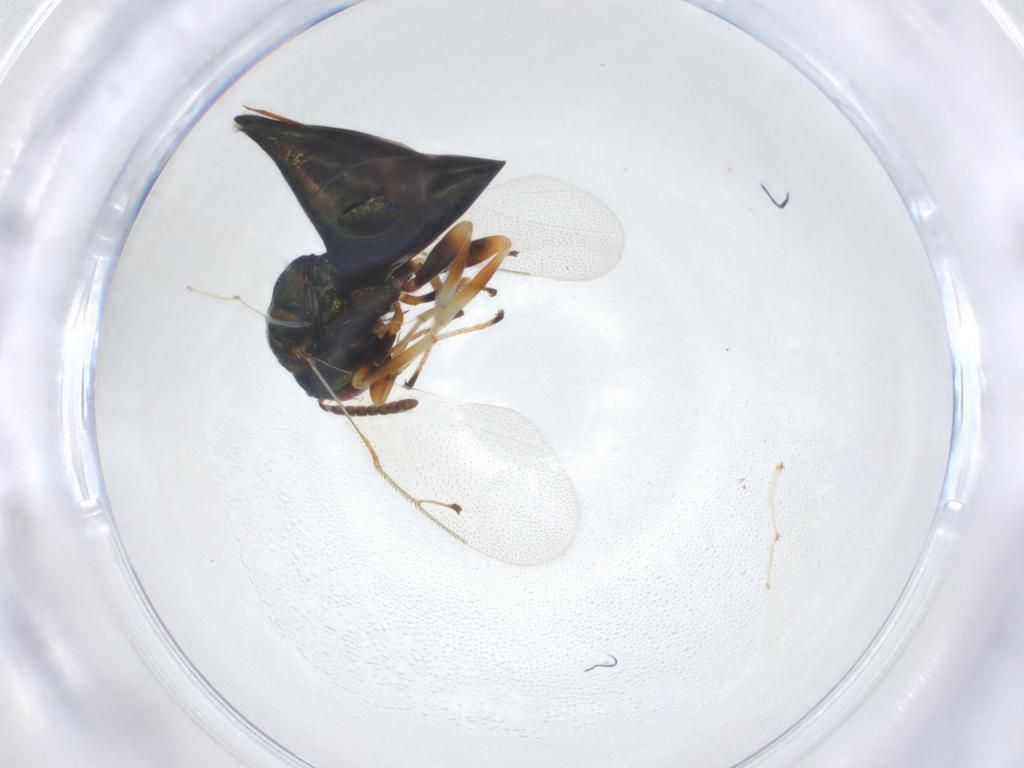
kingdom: Animalia
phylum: Arthropoda
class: Insecta
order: Hymenoptera
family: Pteromalidae
